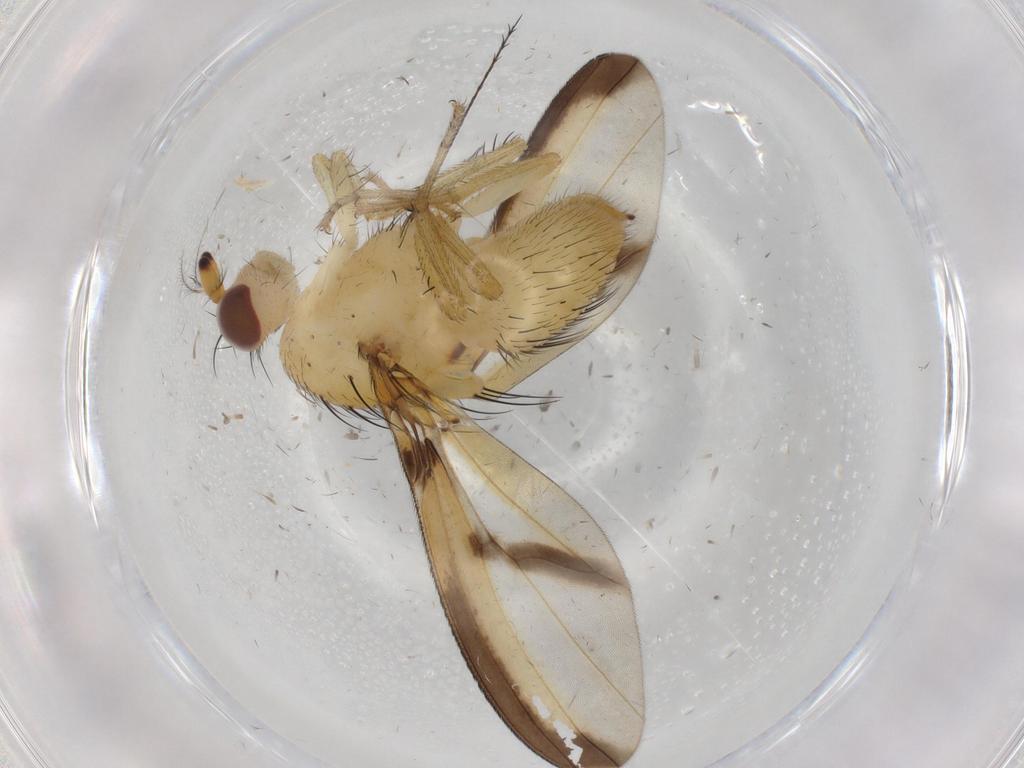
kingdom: Animalia
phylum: Arthropoda
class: Insecta
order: Diptera
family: Lauxaniidae
